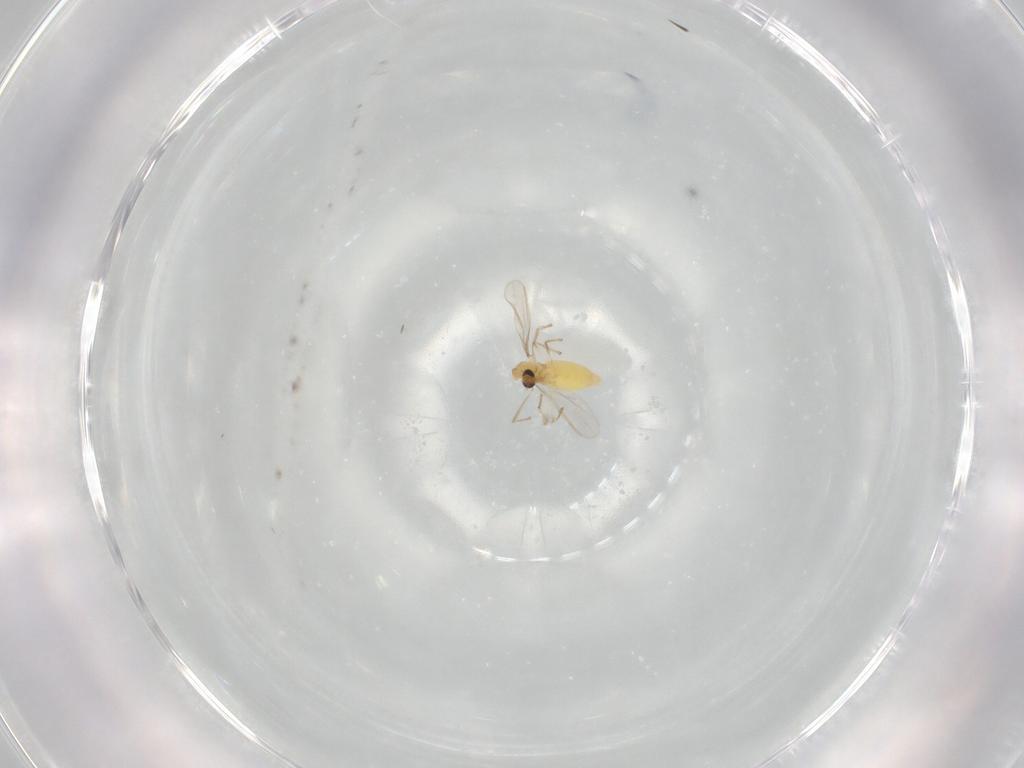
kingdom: Animalia
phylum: Arthropoda
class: Insecta
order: Diptera
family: Chironomidae
